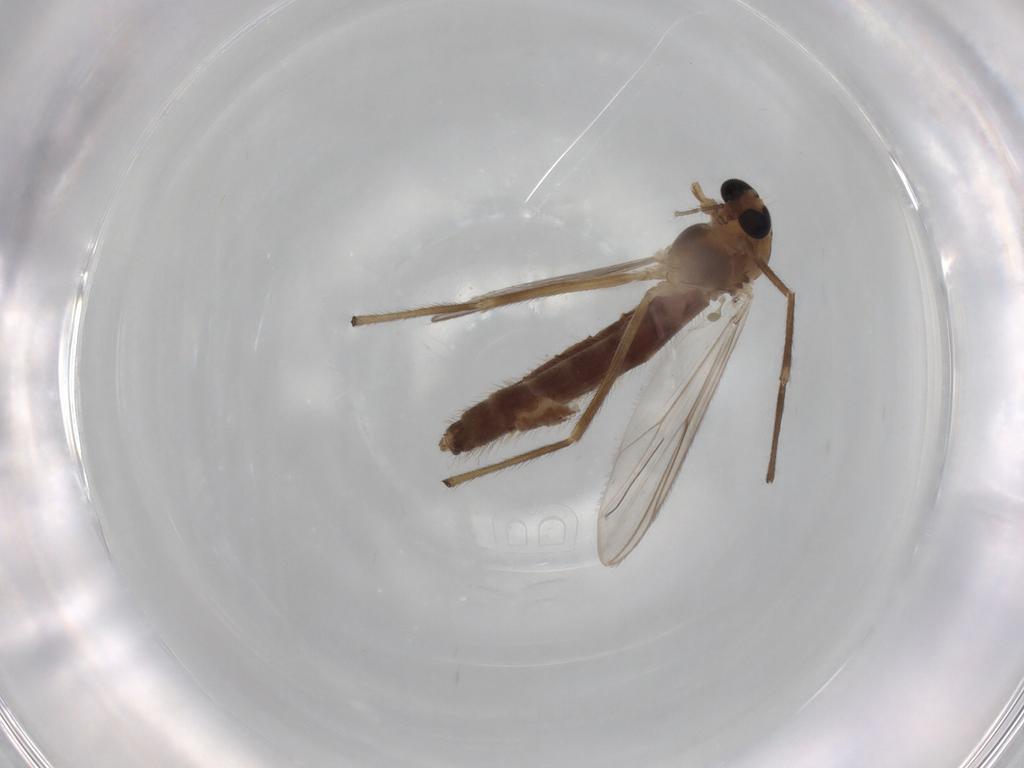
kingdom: Animalia
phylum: Arthropoda
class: Insecta
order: Diptera
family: Chironomidae
